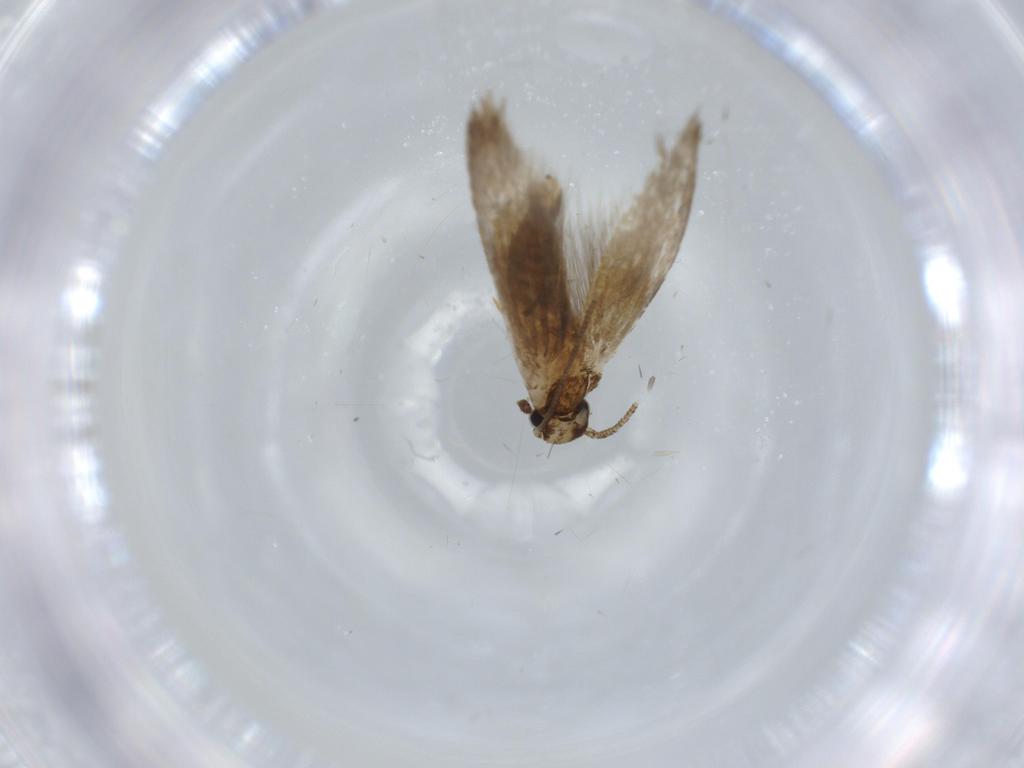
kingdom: Animalia
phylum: Arthropoda
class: Insecta
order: Lepidoptera
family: Tineidae
